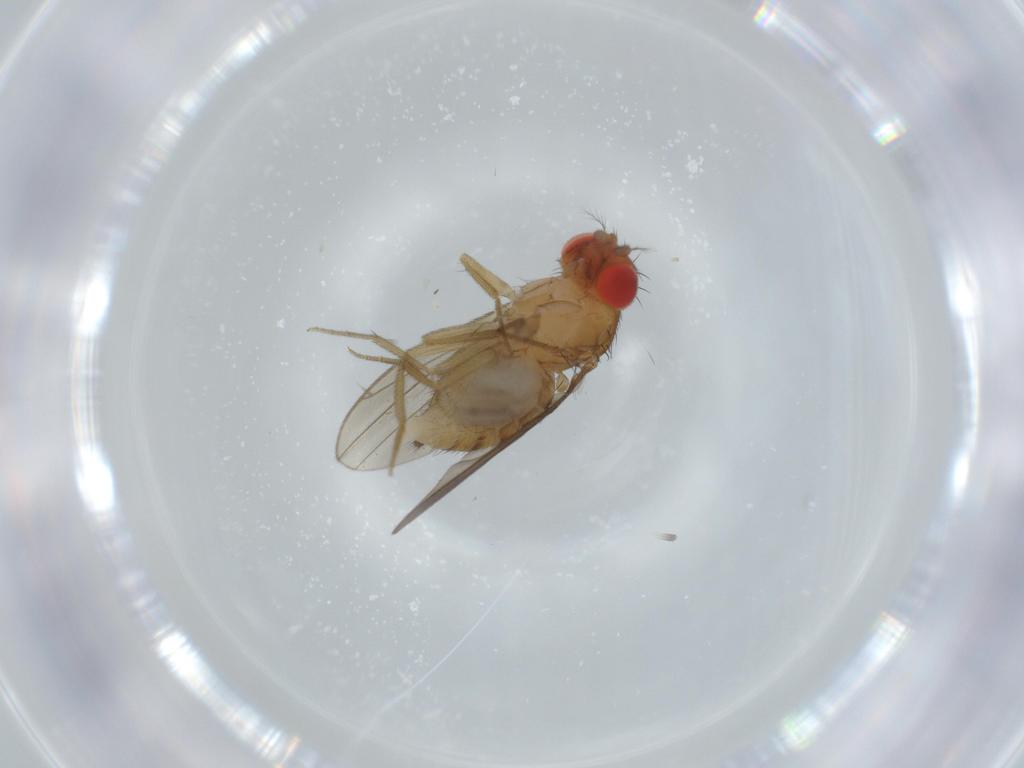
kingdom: Animalia
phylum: Arthropoda
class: Insecta
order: Diptera
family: Drosophilidae
